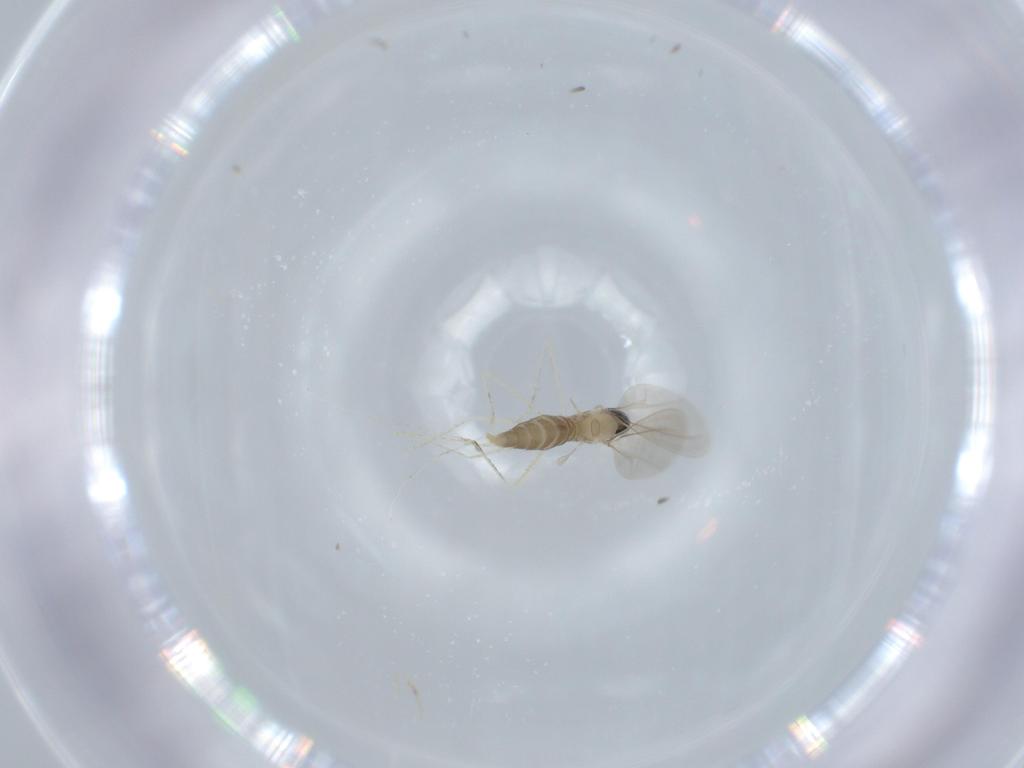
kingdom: Animalia
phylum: Arthropoda
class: Insecta
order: Diptera
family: Cecidomyiidae
